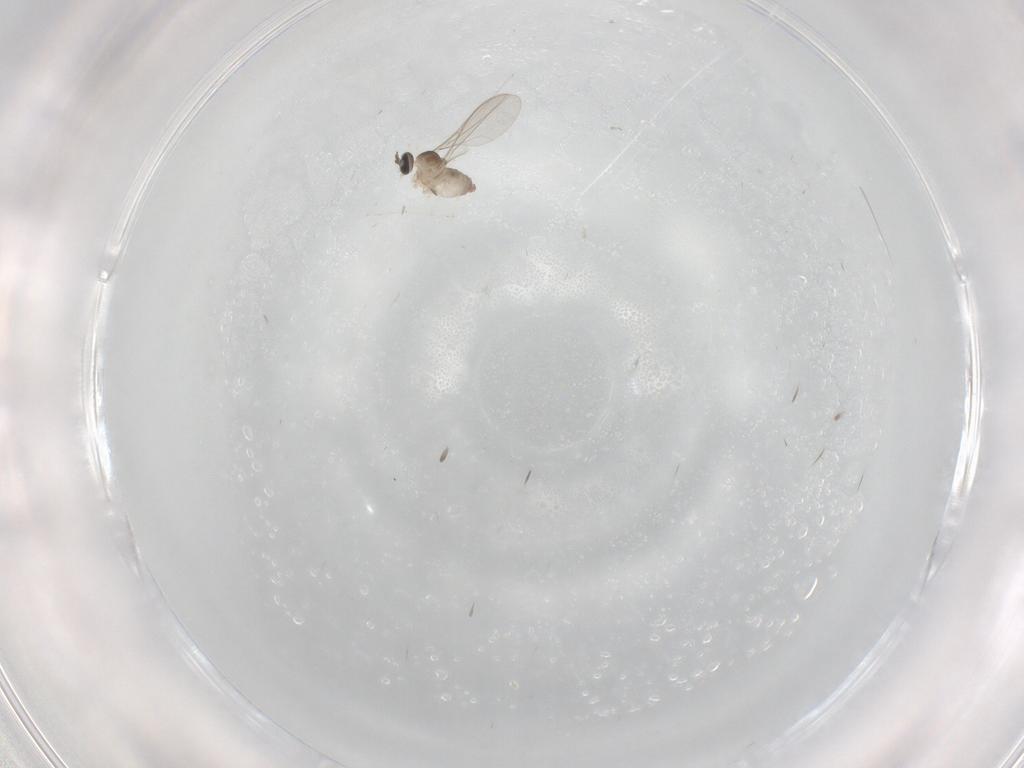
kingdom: Animalia
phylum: Arthropoda
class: Insecta
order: Diptera
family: Cecidomyiidae
